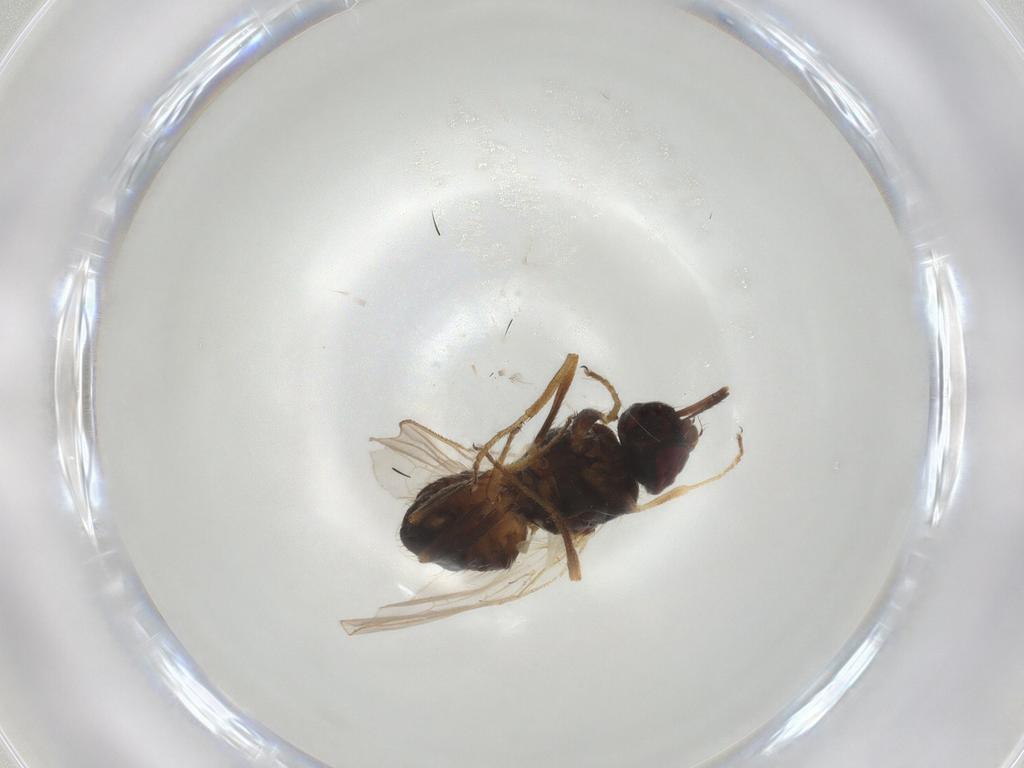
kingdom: Animalia
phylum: Arthropoda
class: Insecta
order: Diptera
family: Muscidae
